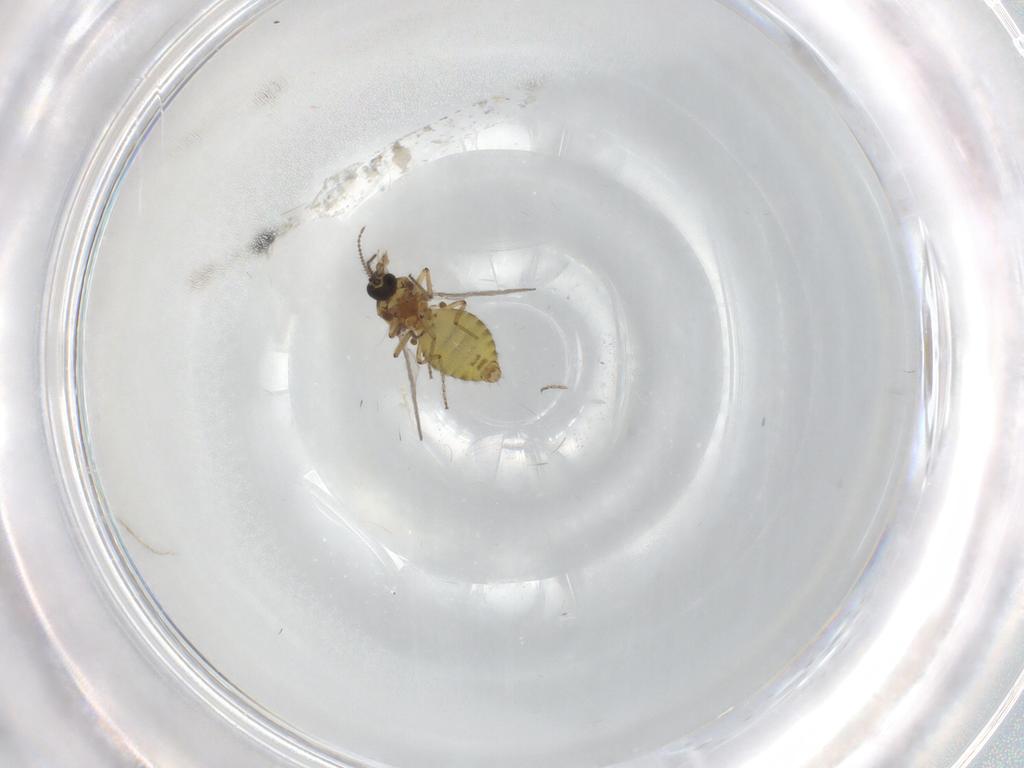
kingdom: Animalia
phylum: Arthropoda
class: Insecta
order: Diptera
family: Ceratopogonidae
